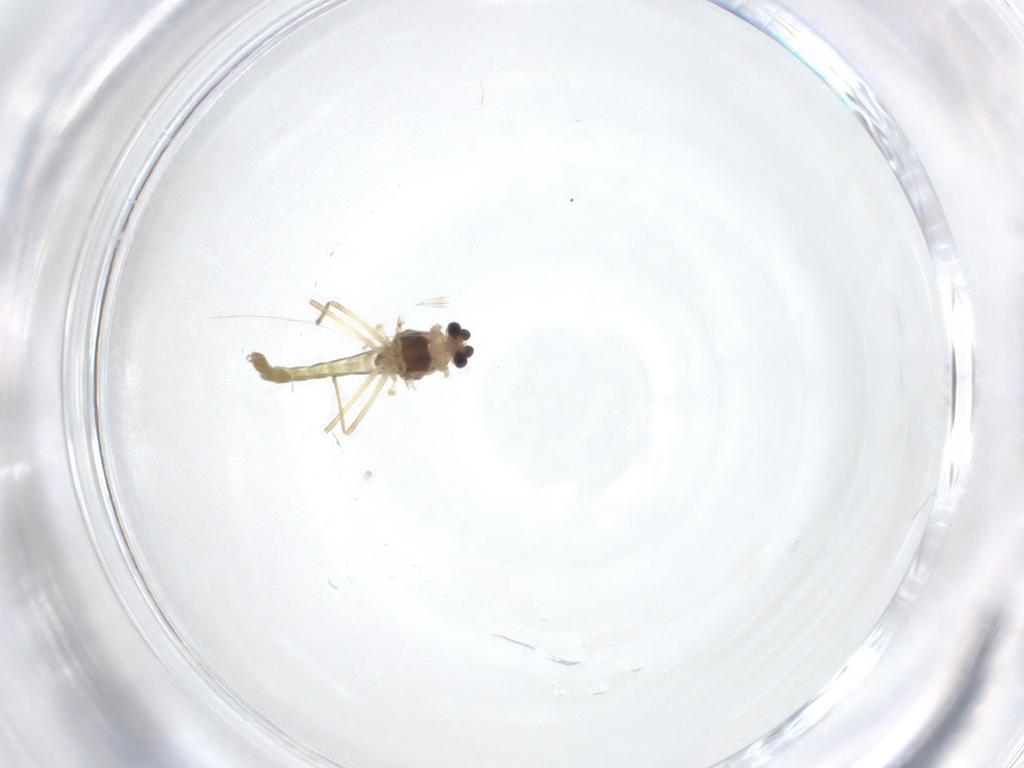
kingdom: Animalia
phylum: Arthropoda
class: Insecta
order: Diptera
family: Chironomidae
